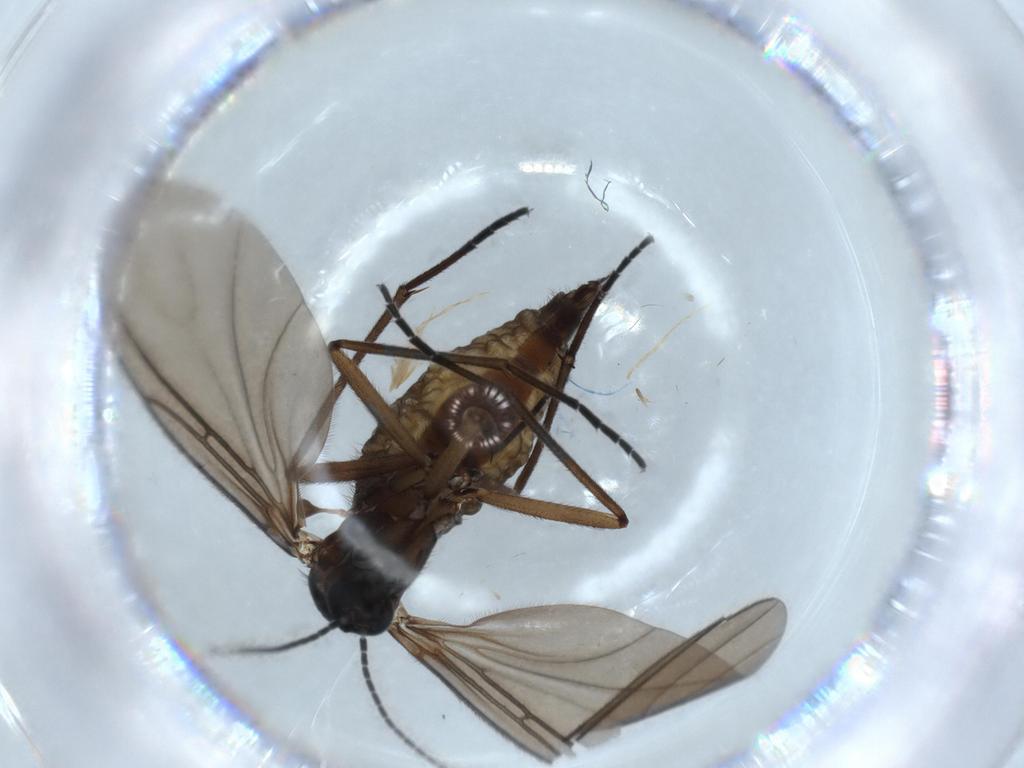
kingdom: Animalia
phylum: Arthropoda
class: Insecta
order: Diptera
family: Sciaridae
